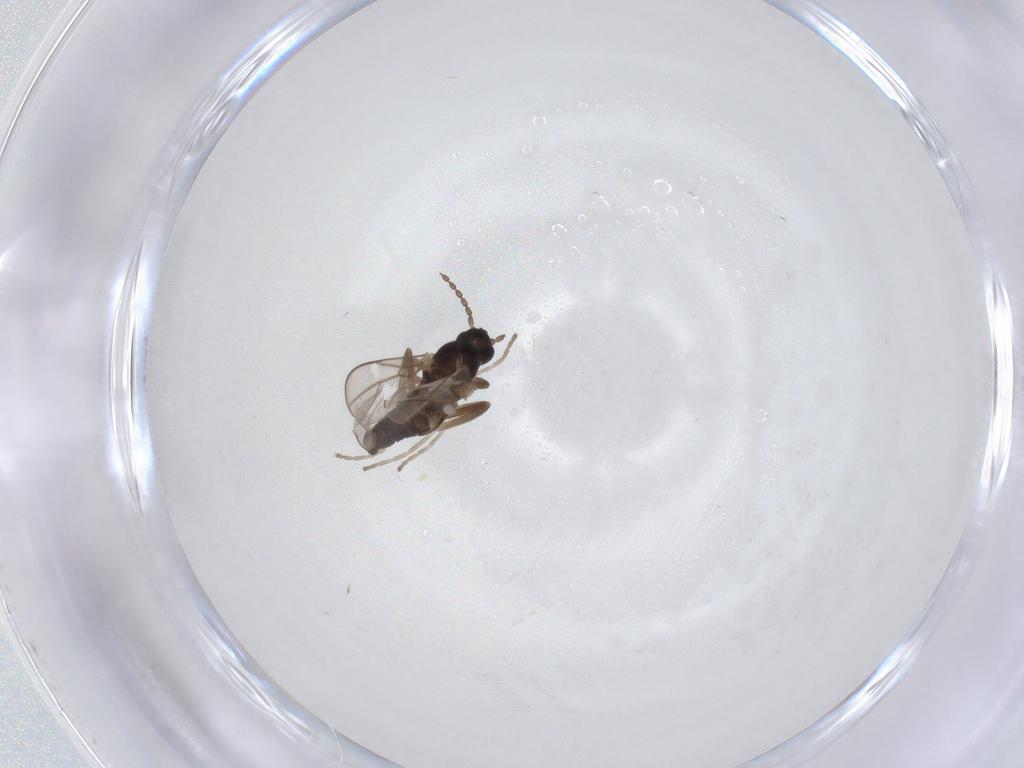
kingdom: Animalia
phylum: Arthropoda
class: Insecta
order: Diptera
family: Cecidomyiidae
